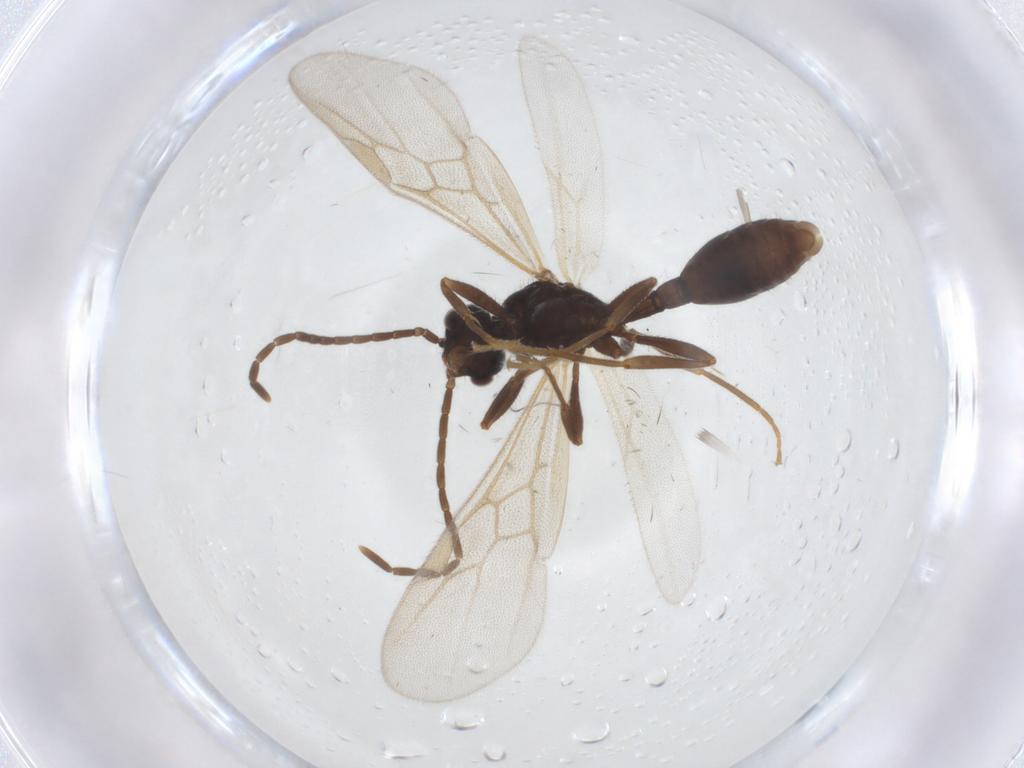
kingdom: Animalia
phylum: Arthropoda
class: Insecta
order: Hymenoptera
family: Formicidae
